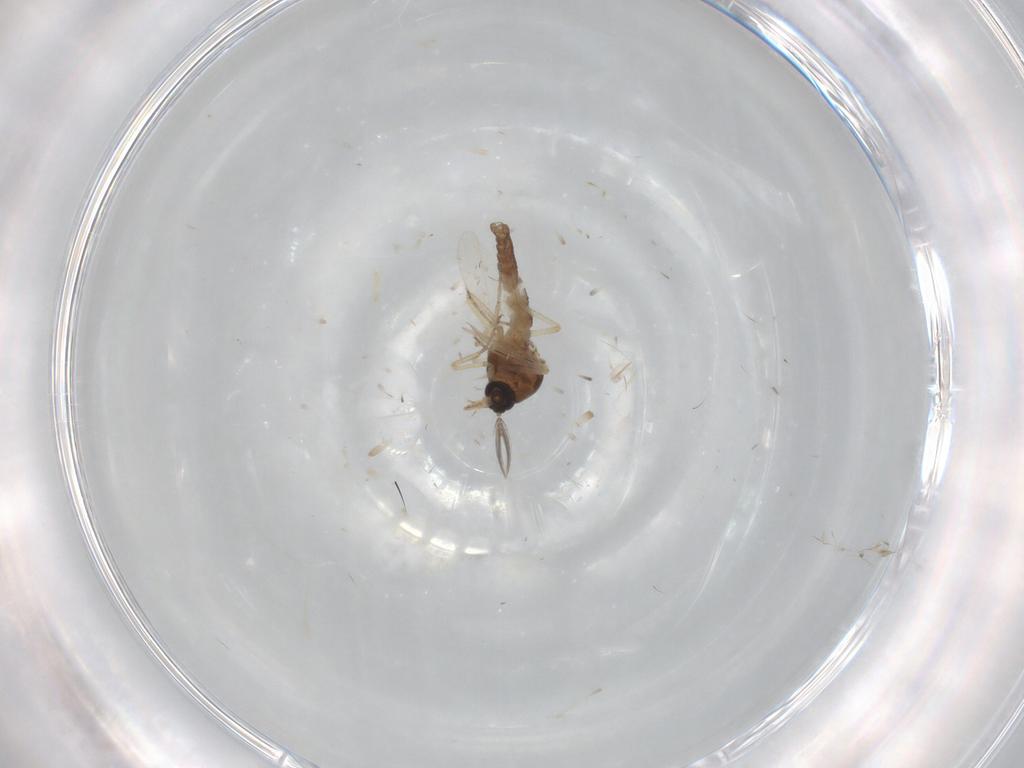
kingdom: Animalia
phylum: Arthropoda
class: Insecta
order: Diptera
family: Ceratopogonidae
